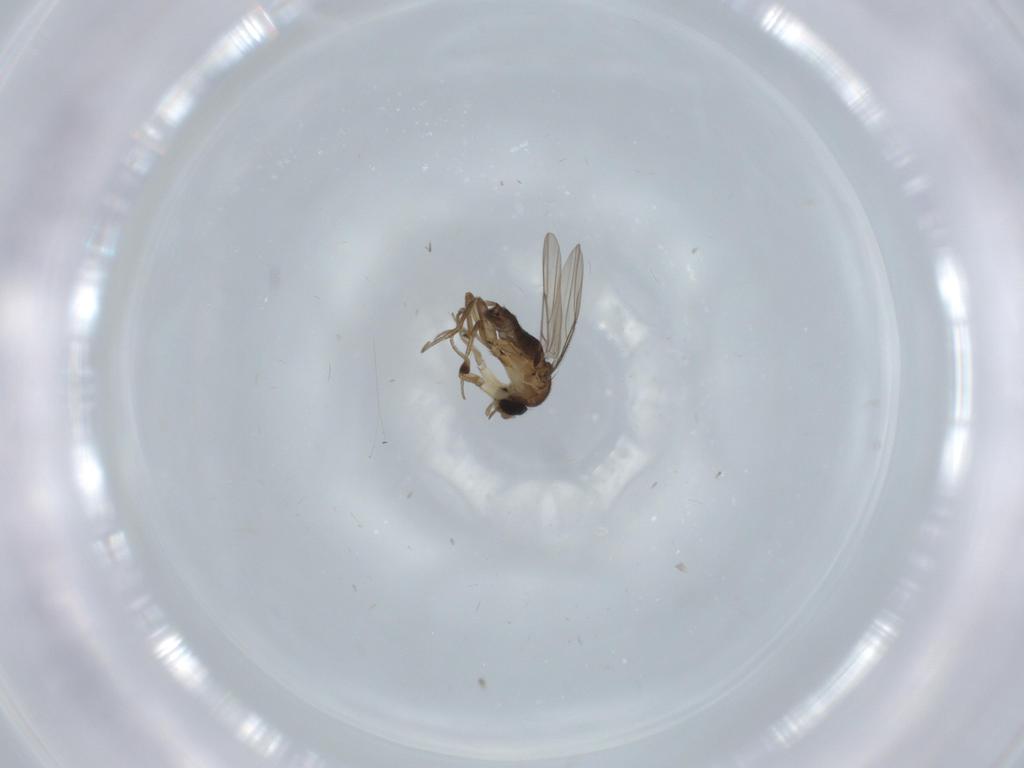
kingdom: Animalia
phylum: Arthropoda
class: Insecta
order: Diptera
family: Phoridae
